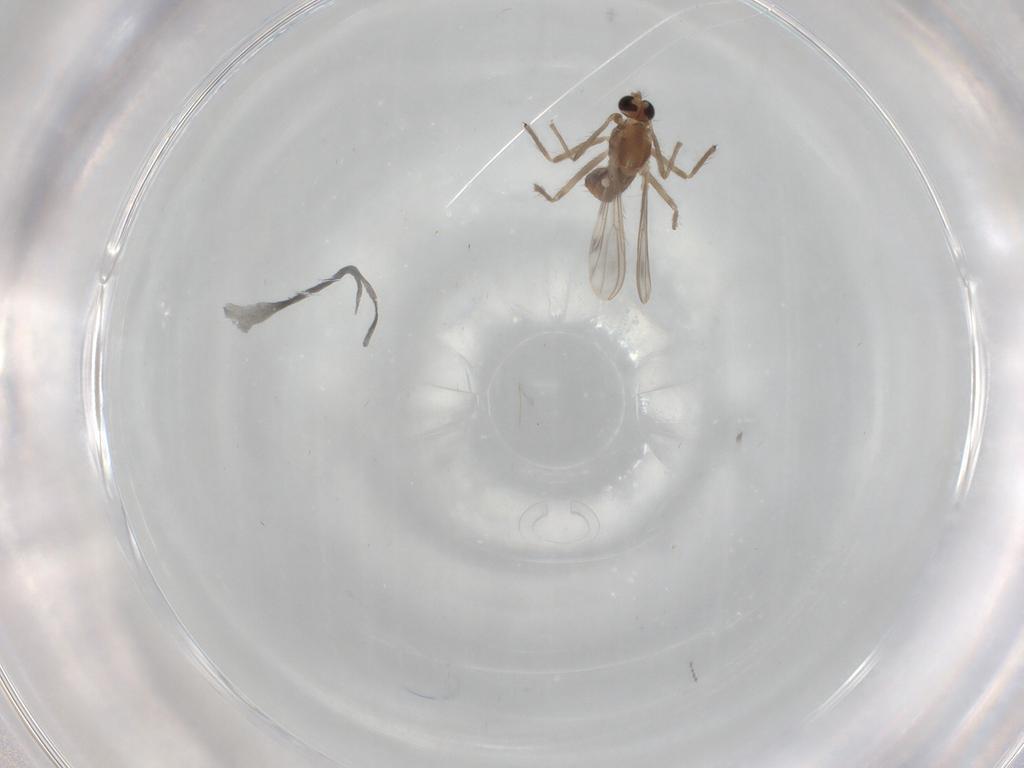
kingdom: Animalia
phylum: Arthropoda
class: Insecta
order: Diptera
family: Cecidomyiidae
